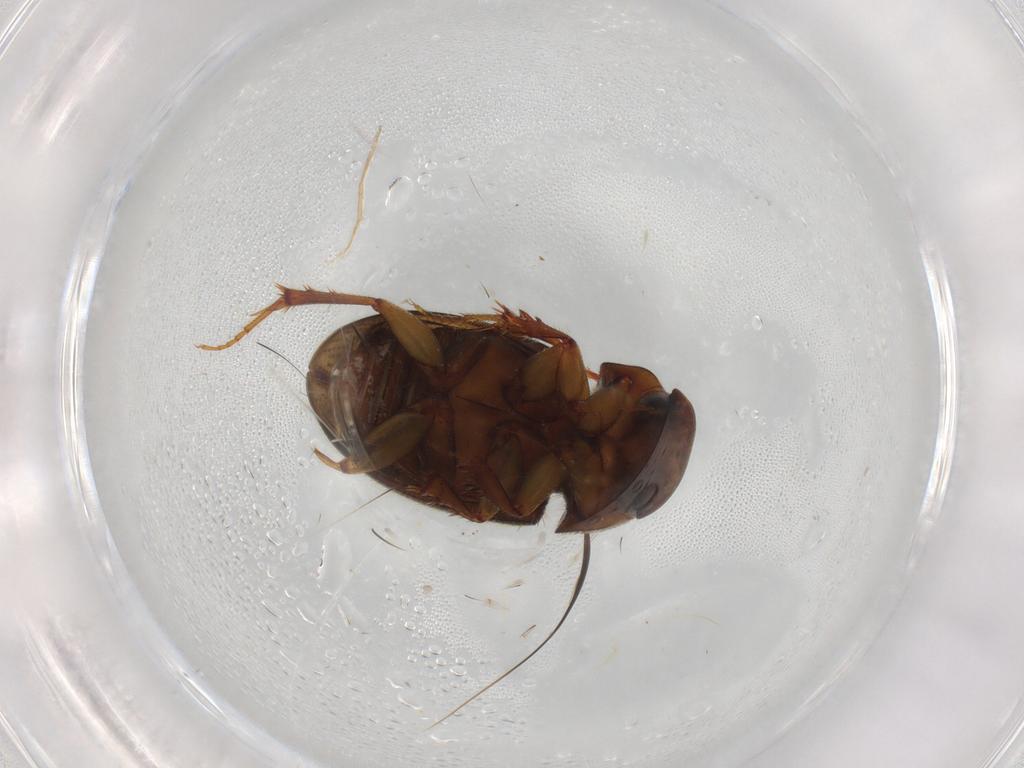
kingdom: Animalia
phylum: Arthropoda
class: Insecta
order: Coleoptera
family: Scarabaeidae
